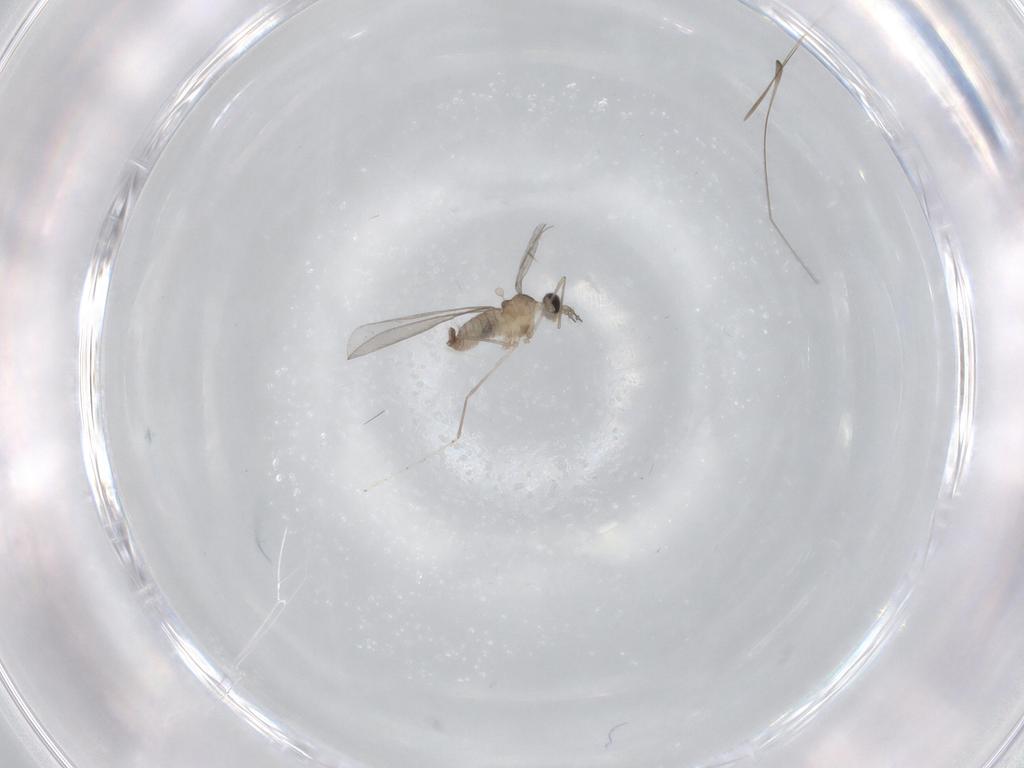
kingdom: Animalia
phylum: Arthropoda
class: Insecta
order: Diptera
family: Cecidomyiidae
